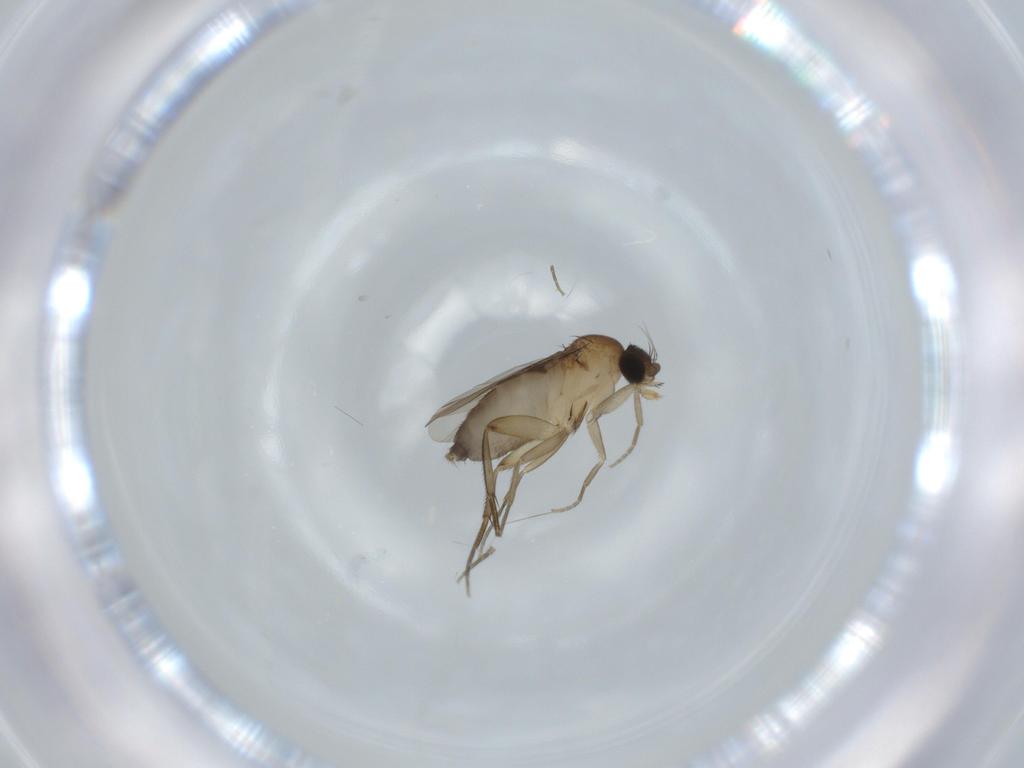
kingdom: Animalia
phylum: Arthropoda
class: Insecta
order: Diptera
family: Phoridae
